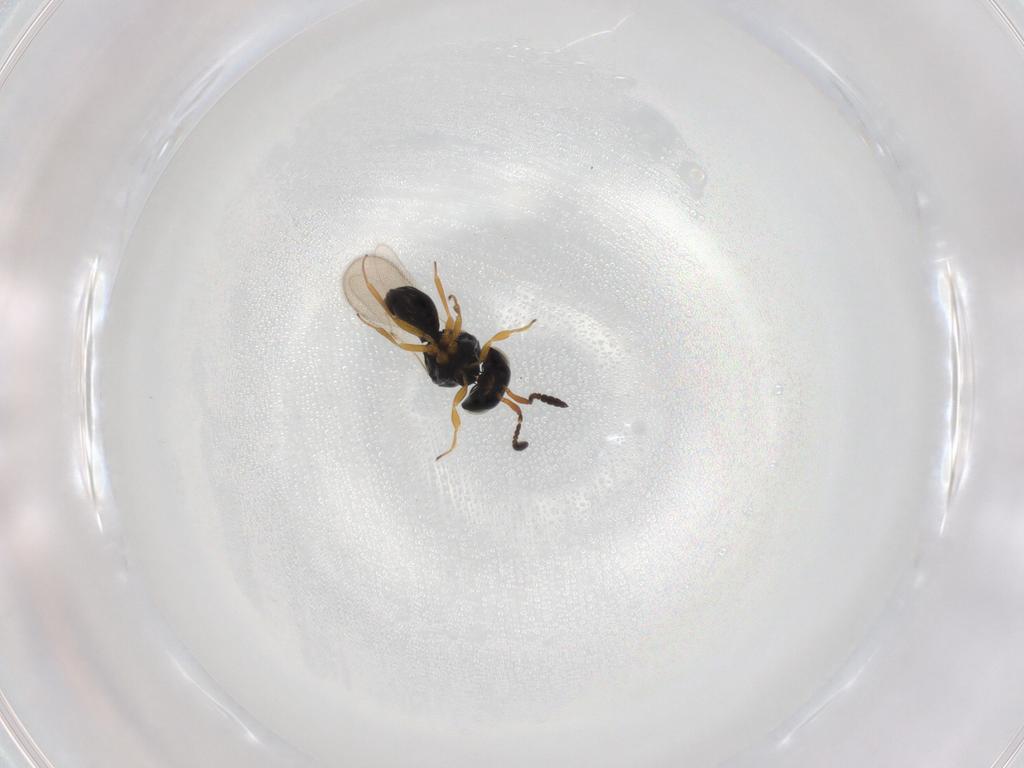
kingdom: Animalia
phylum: Arthropoda
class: Insecta
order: Hymenoptera
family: Scelionidae
